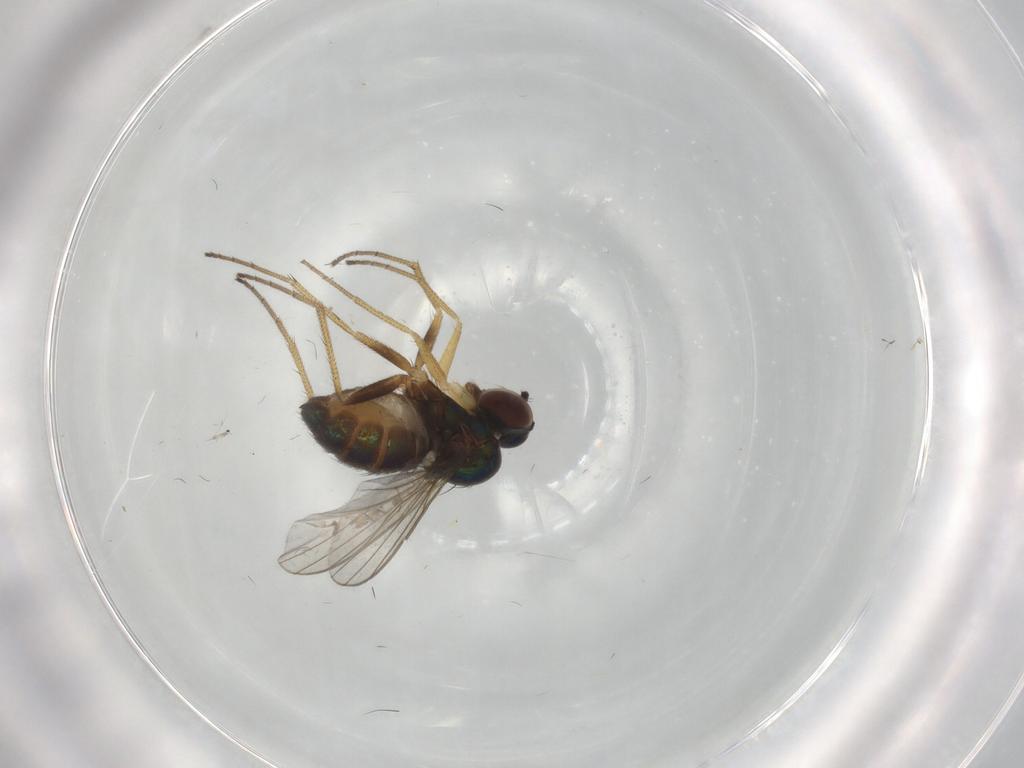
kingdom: Animalia
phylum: Arthropoda
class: Insecta
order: Diptera
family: Dolichopodidae
